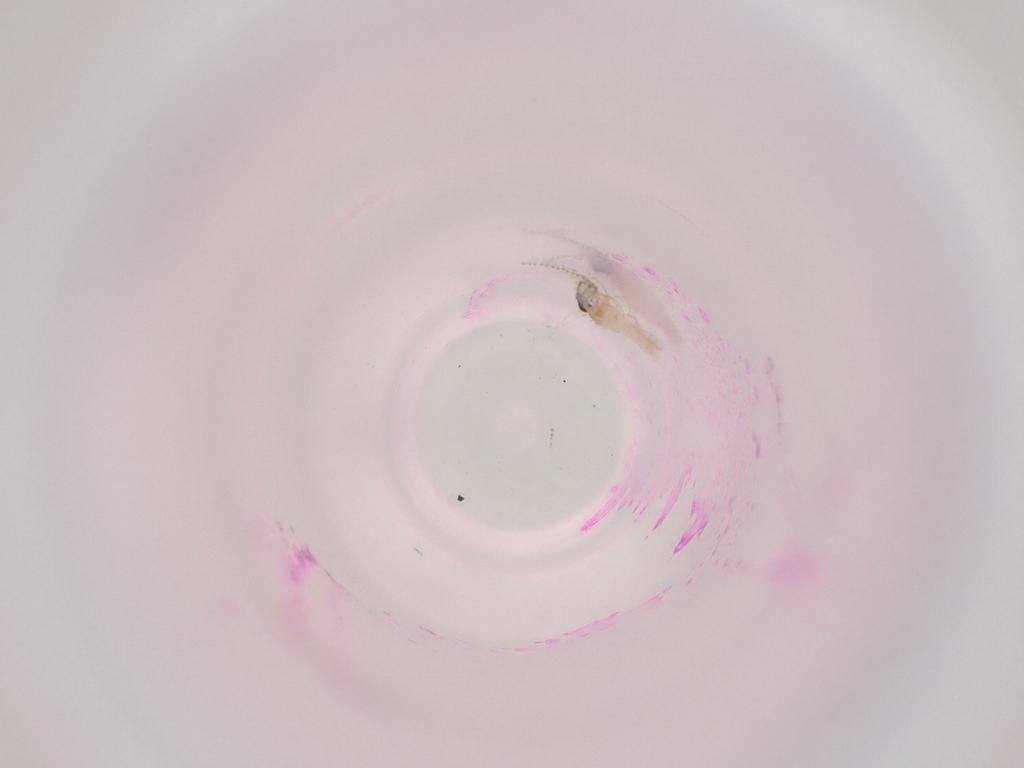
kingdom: Animalia
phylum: Arthropoda
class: Insecta
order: Diptera
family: Cecidomyiidae
